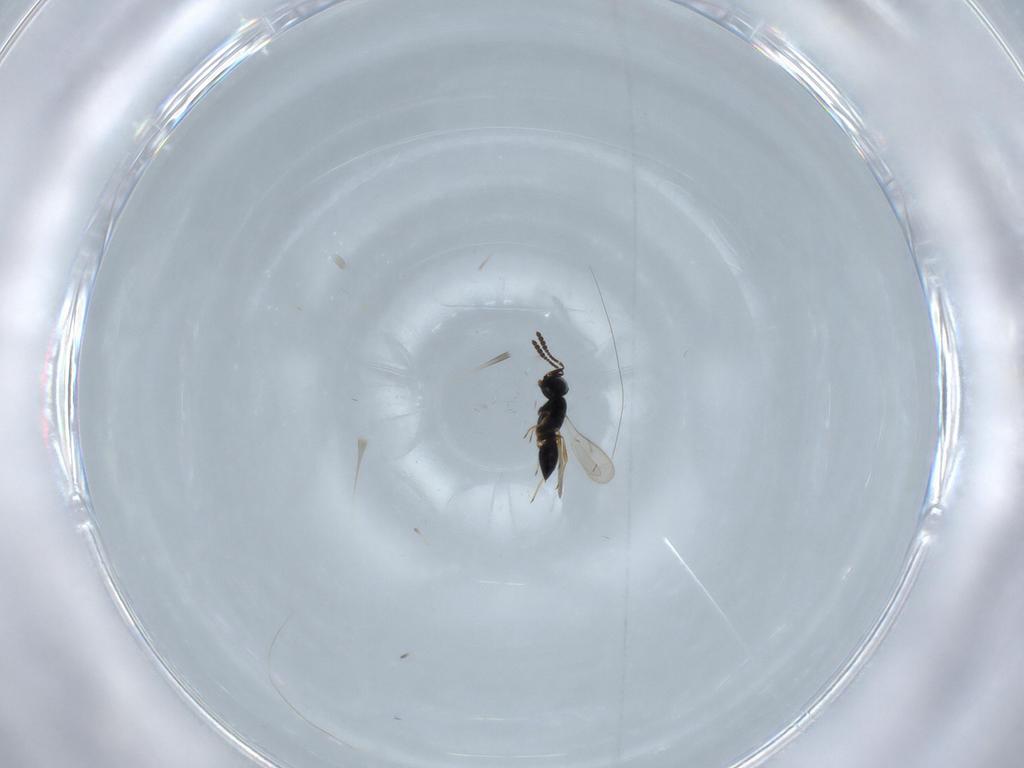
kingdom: Animalia
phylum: Arthropoda
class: Insecta
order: Hymenoptera
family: Scelionidae
